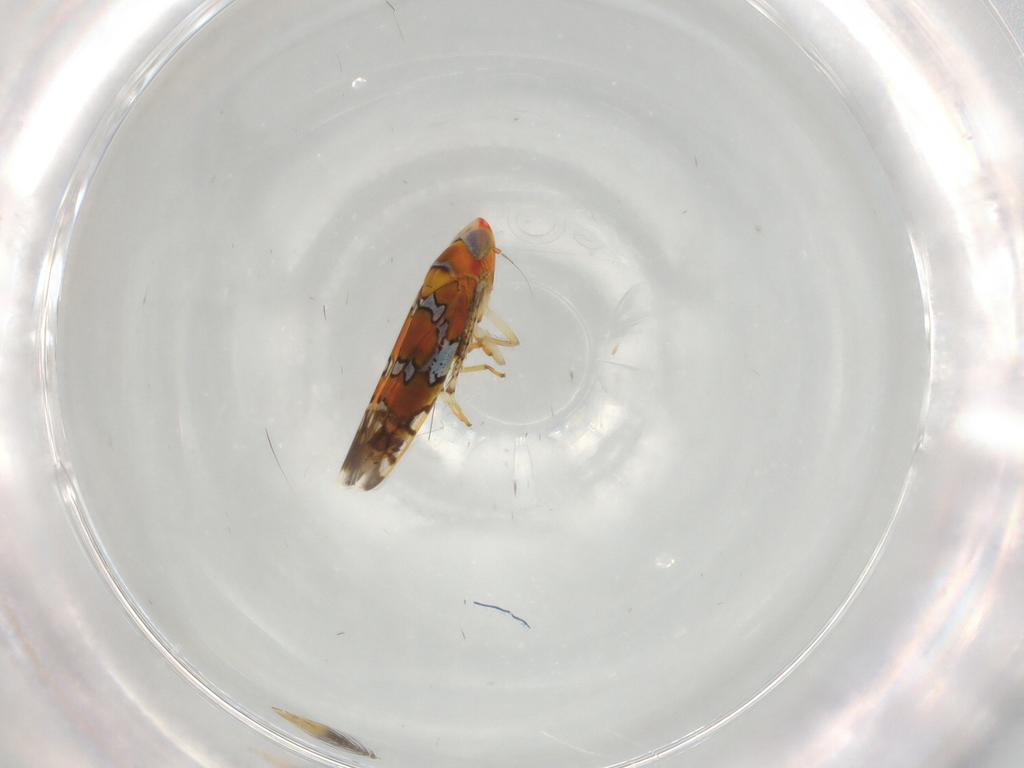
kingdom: Animalia
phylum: Arthropoda
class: Insecta
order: Hemiptera
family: Cicadellidae
